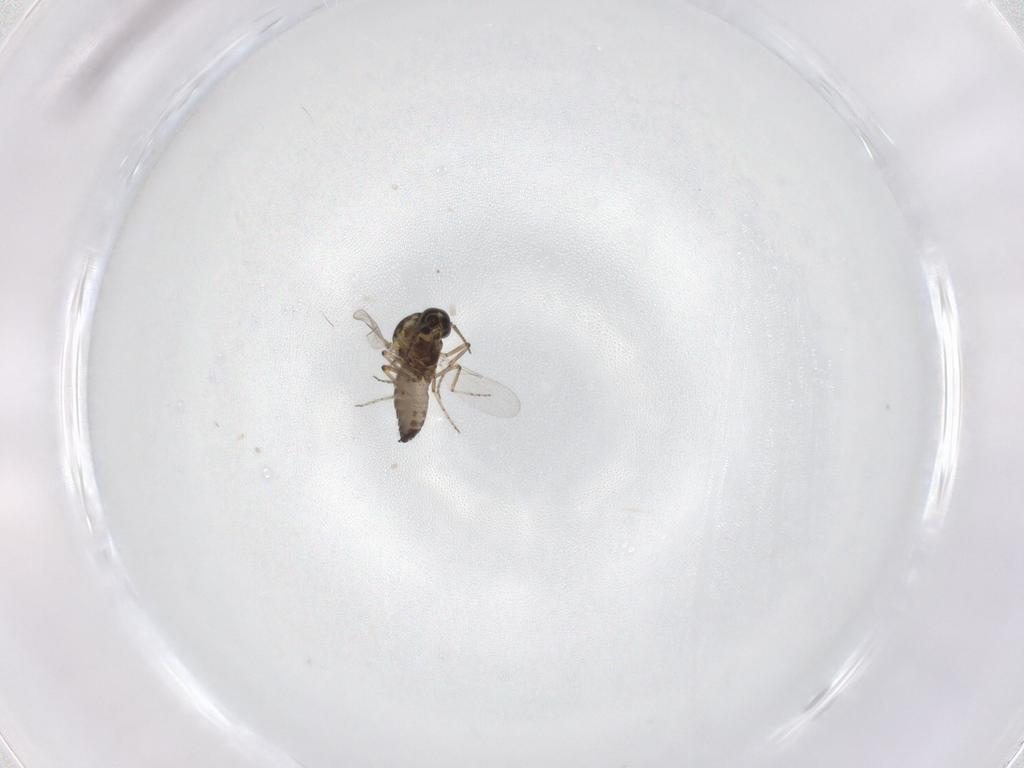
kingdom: Animalia
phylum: Arthropoda
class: Insecta
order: Diptera
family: Ceratopogonidae
